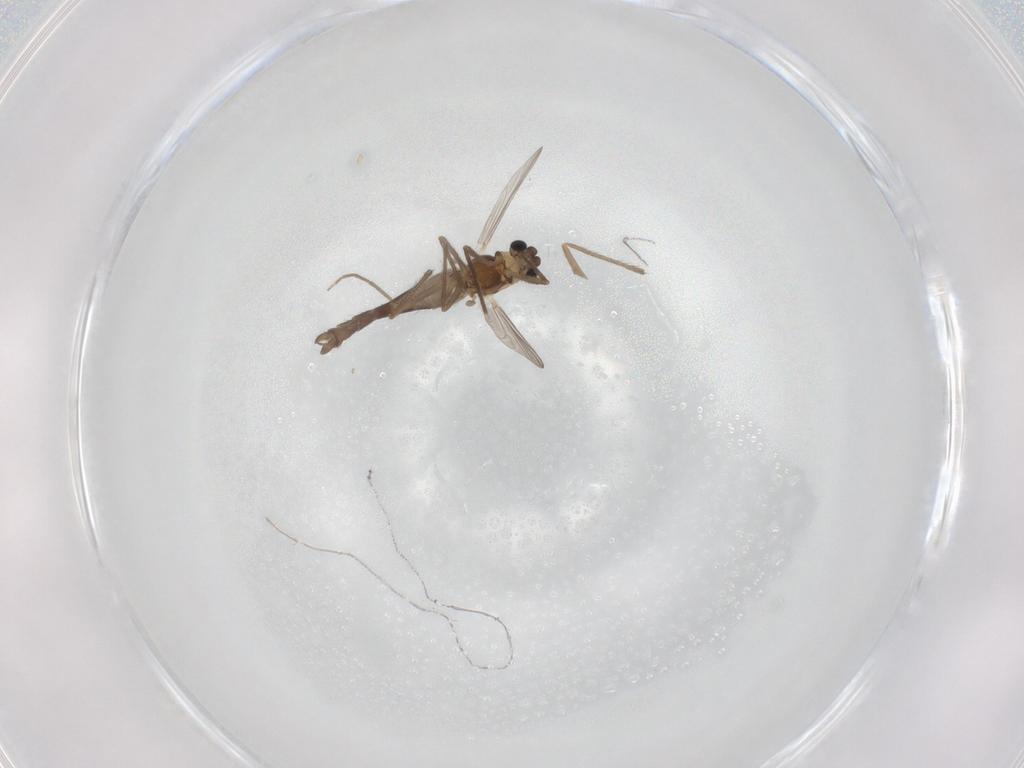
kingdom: Animalia
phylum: Arthropoda
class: Insecta
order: Diptera
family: Chironomidae
